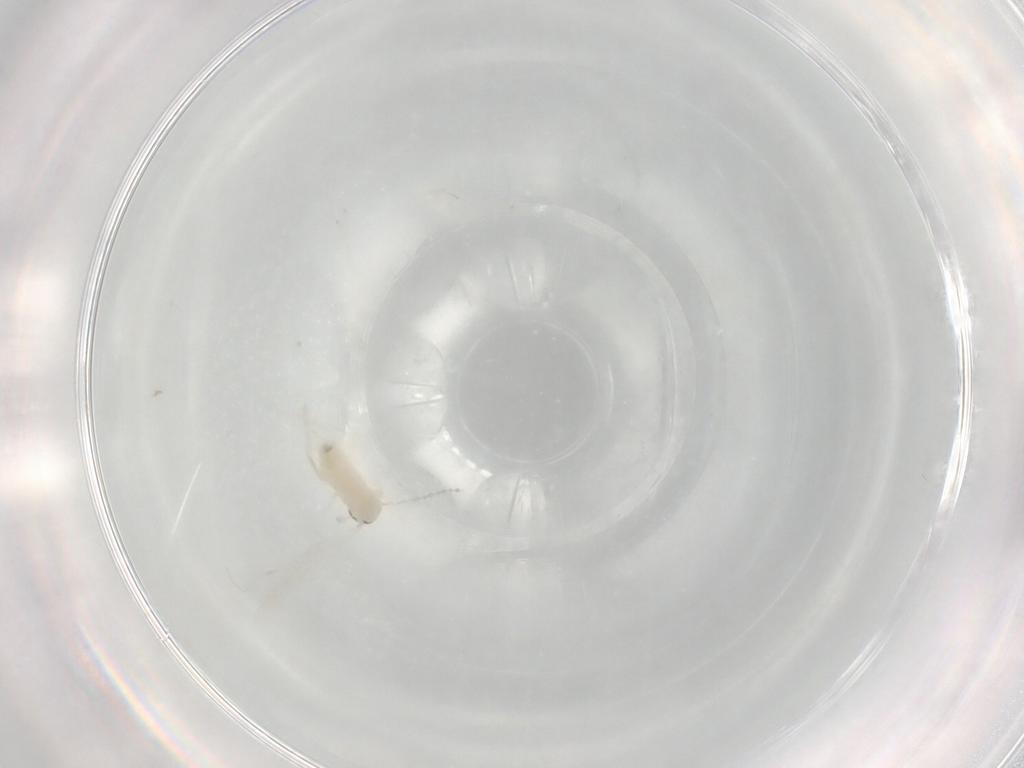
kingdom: Animalia
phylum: Arthropoda
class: Insecta
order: Diptera
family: Cecidomyiidae
